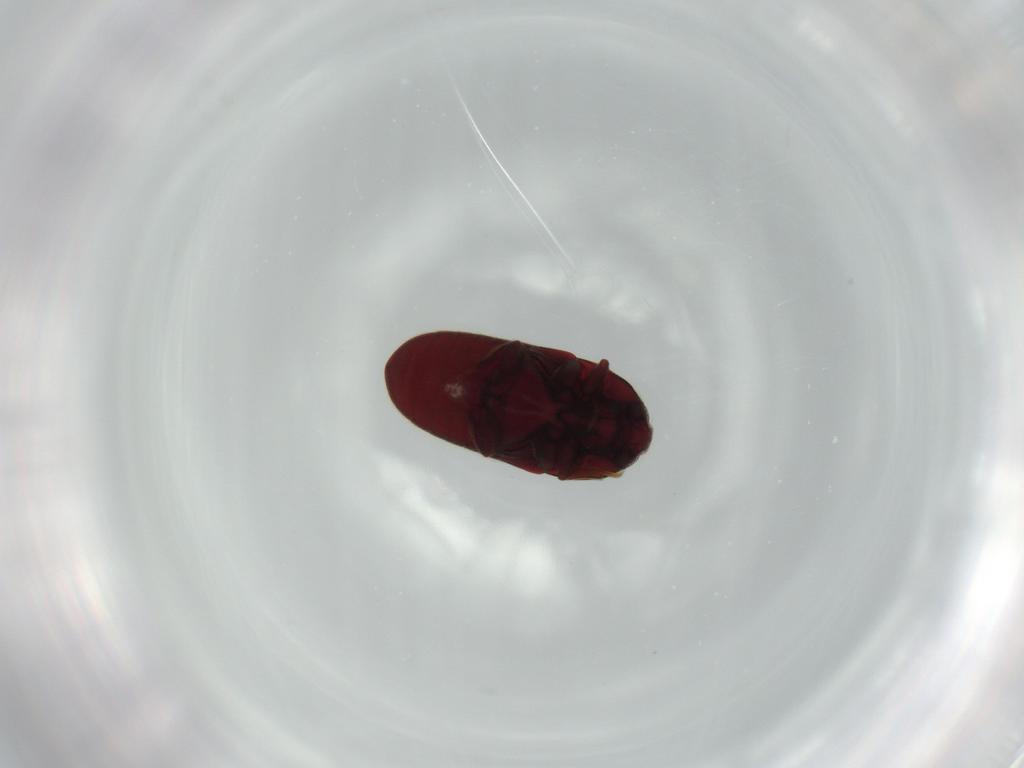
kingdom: Animalia
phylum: Arthropoda
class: Insecta
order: Coleoptera
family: Throscidae
